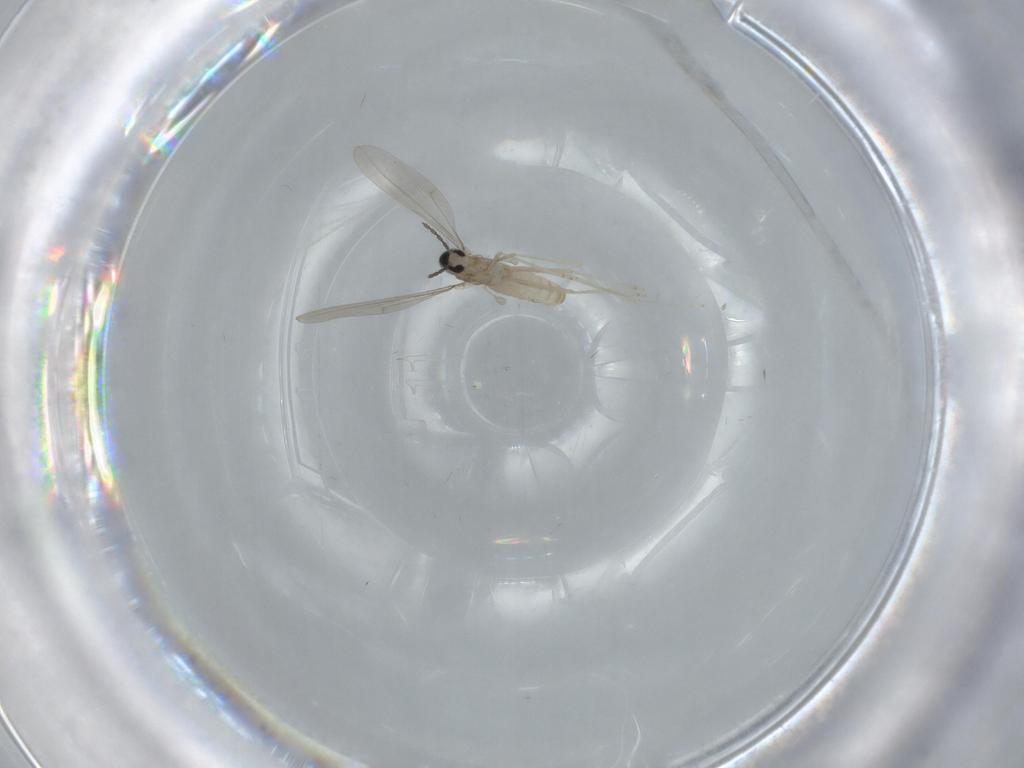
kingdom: Animalia
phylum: Arthropoda
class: Insecta
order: Diptera
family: Cecidomyiidae
